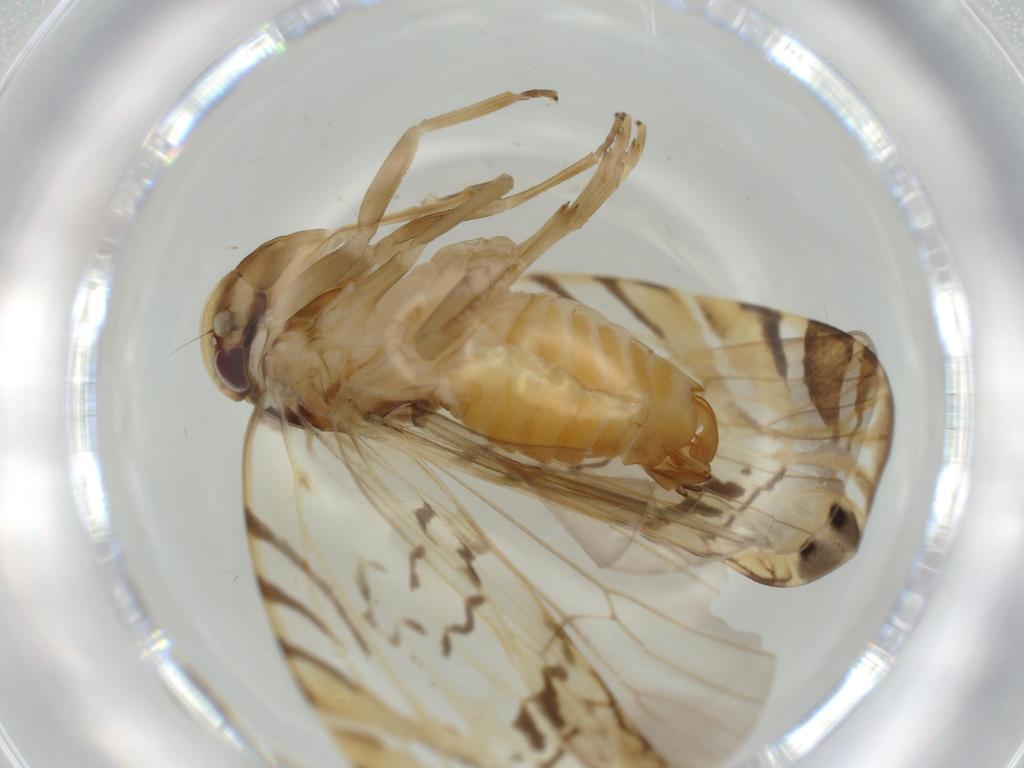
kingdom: Animalia
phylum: Arthropoda
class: Insecta
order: Hemiptera
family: Cixiidae
